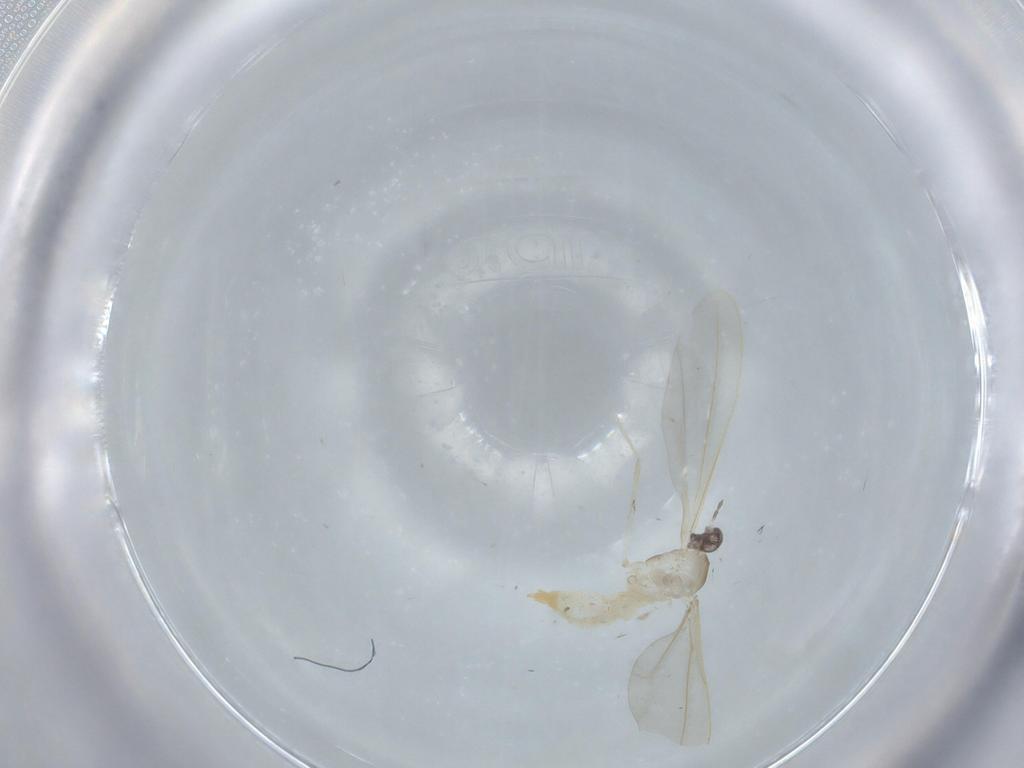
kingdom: Animalia
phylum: Arthropoda
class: Insecta
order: Diptera
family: Cecidomyiidae
